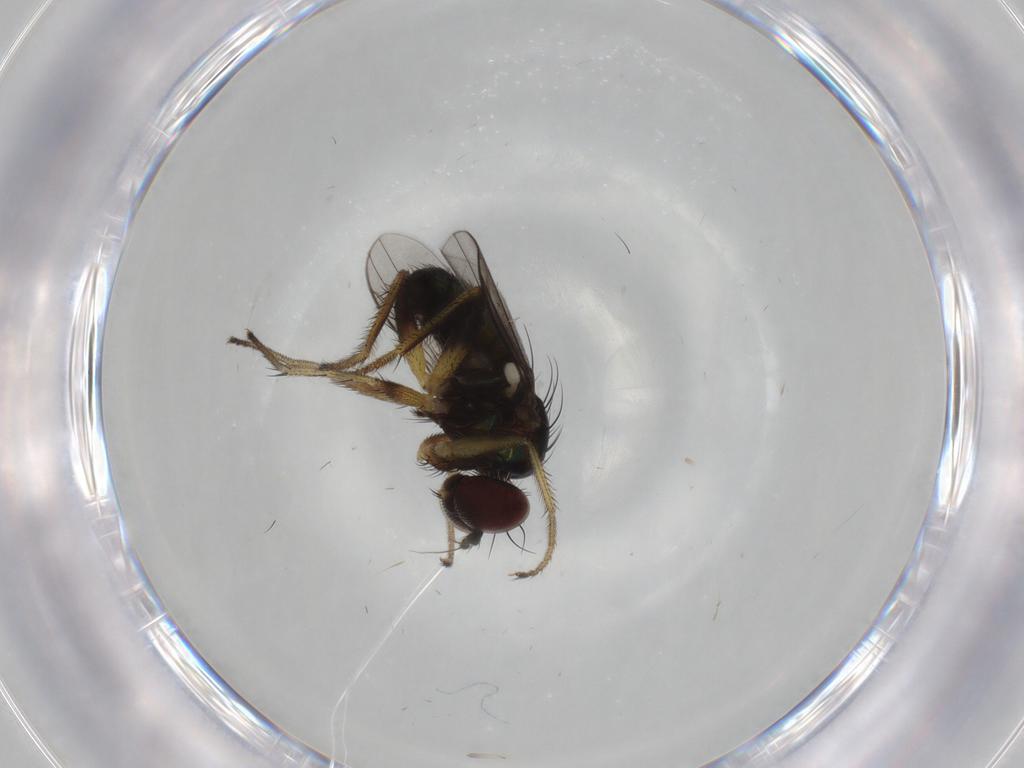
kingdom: Animalia
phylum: Arthropoda
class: Insecta
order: Diptera
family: Dolichopodidae
